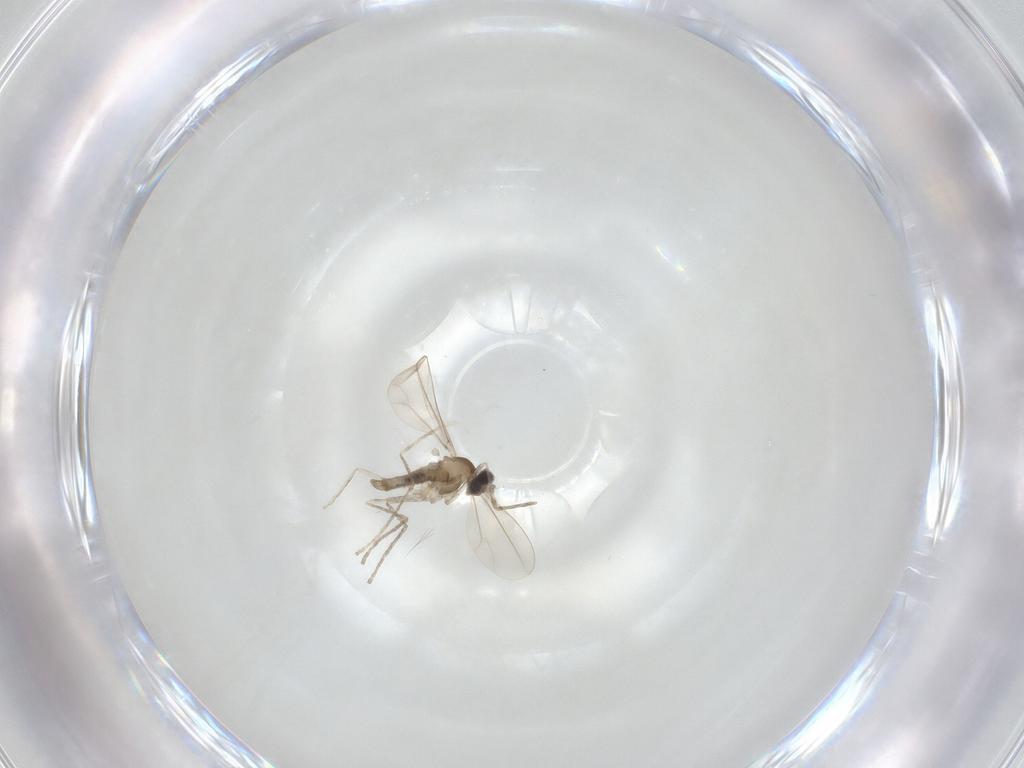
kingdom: Animalia
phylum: Arthropoda
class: Insecta
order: Diptera
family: Cecidomyiidae
